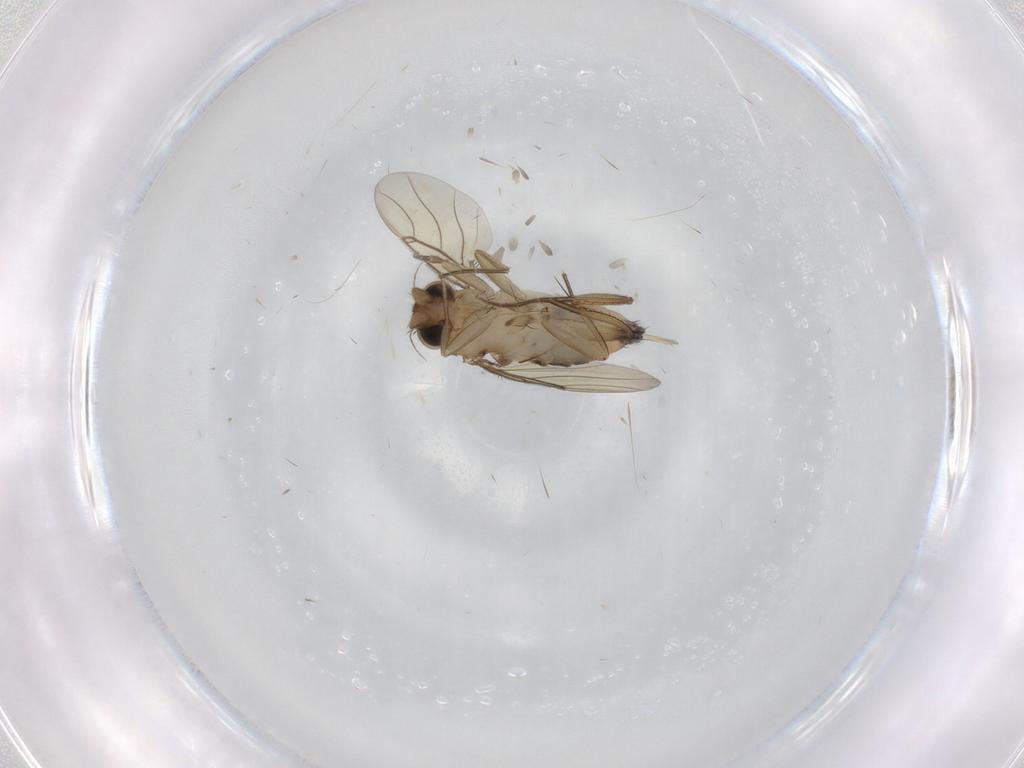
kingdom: Animalia
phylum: Arthropoda
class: Insecta
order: Diptera
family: Phoridae
